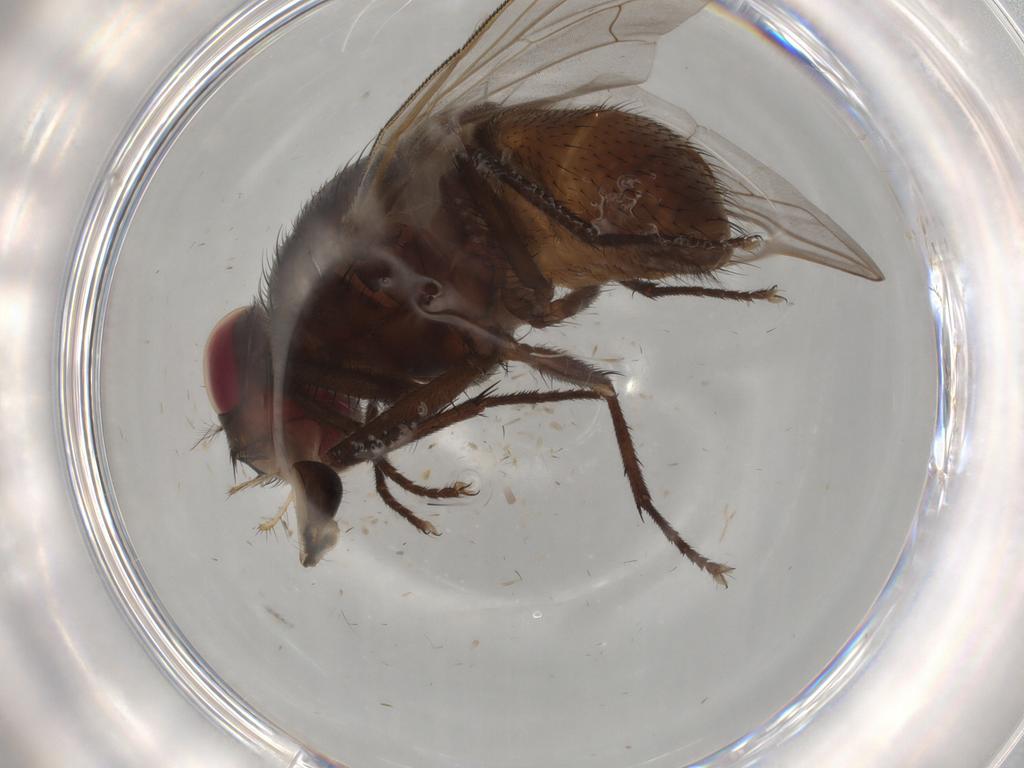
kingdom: Animalia
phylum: Arthropoda
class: Insecta
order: Diptera
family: Muscidae
